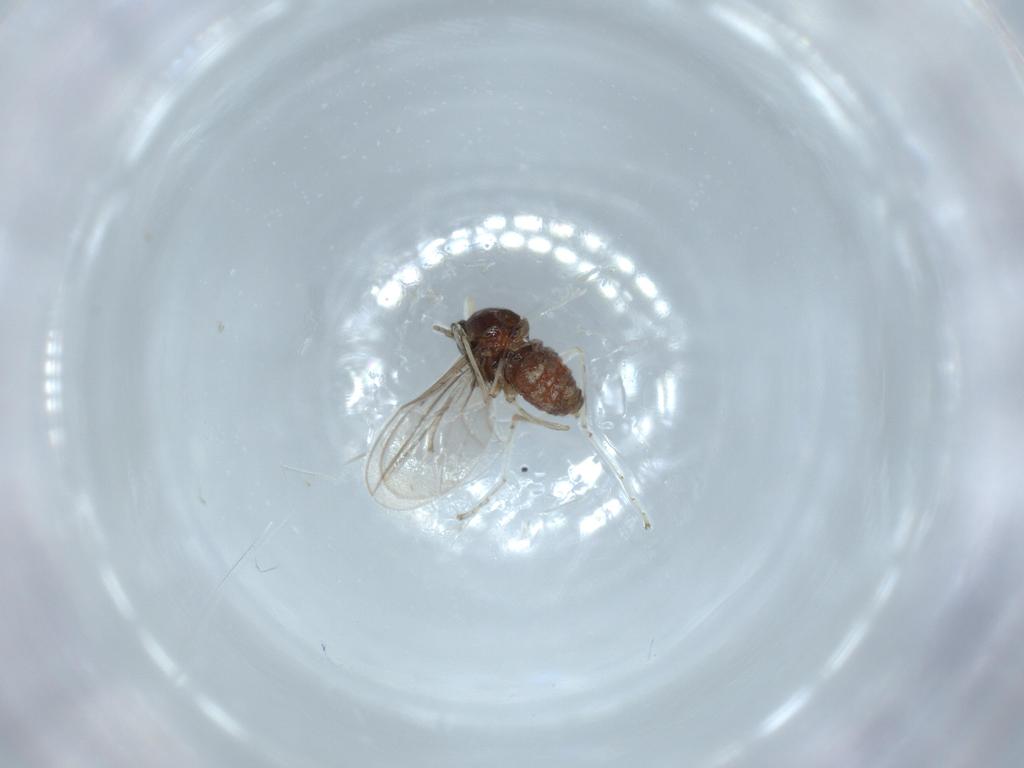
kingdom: Animalia
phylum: Arthropoda
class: Insecta
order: Diptera
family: Cecidomyiidae
